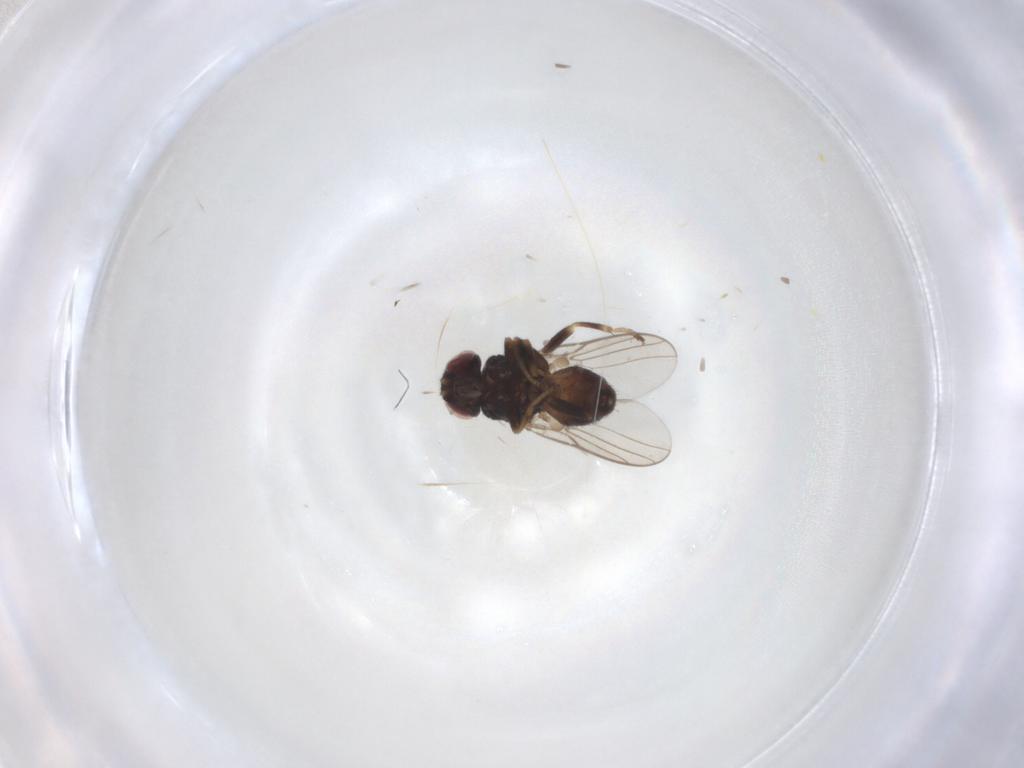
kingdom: Animalia
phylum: Arthropoda
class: Insecta
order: Diptera
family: Chloropidae
